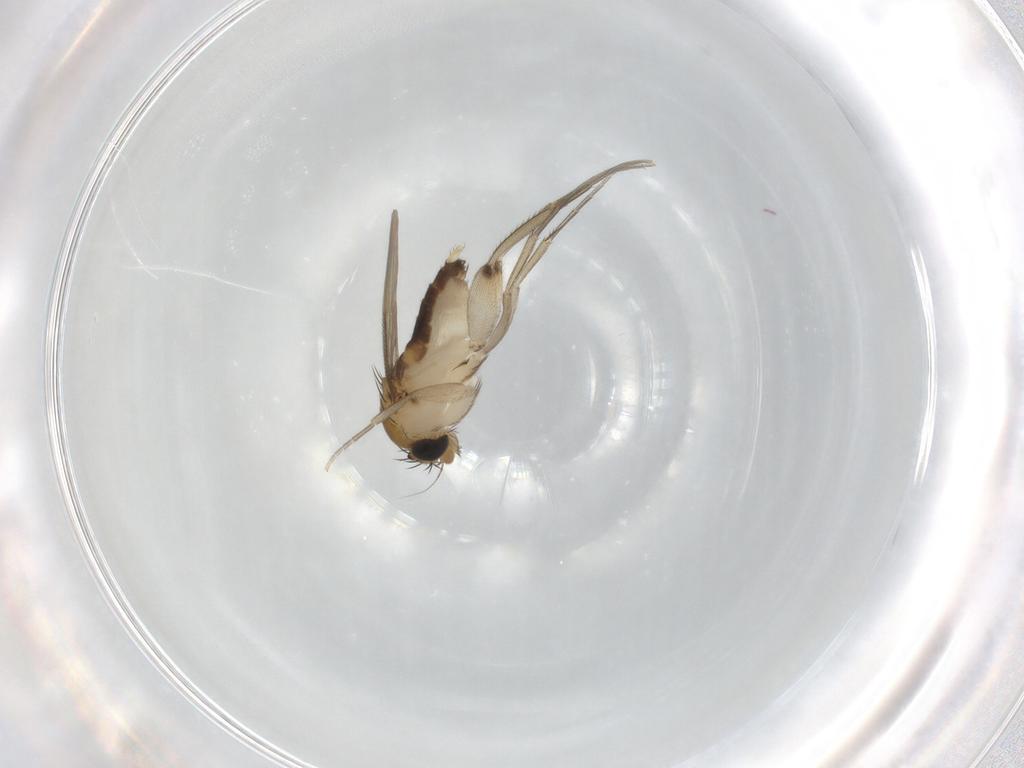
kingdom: Animalia
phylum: Arthropoda
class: Insecta
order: Diptera
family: Phoridae
